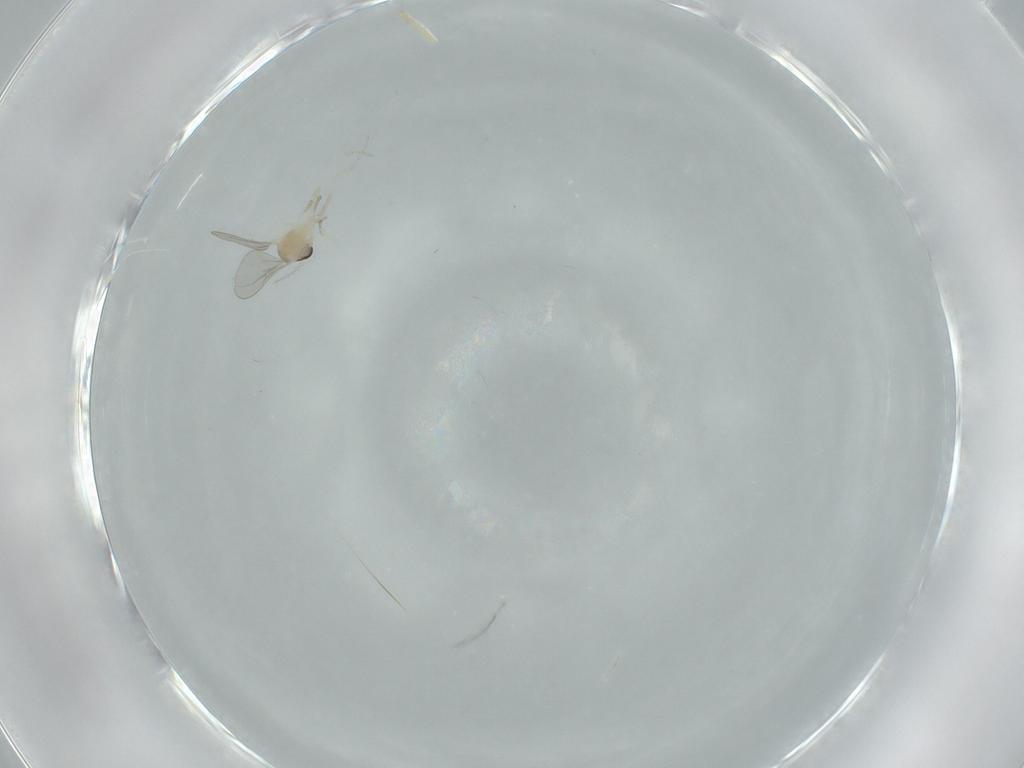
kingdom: Animalia
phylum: Arthropoda
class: Insecta
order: Diptera
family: Cecidomyiidae
